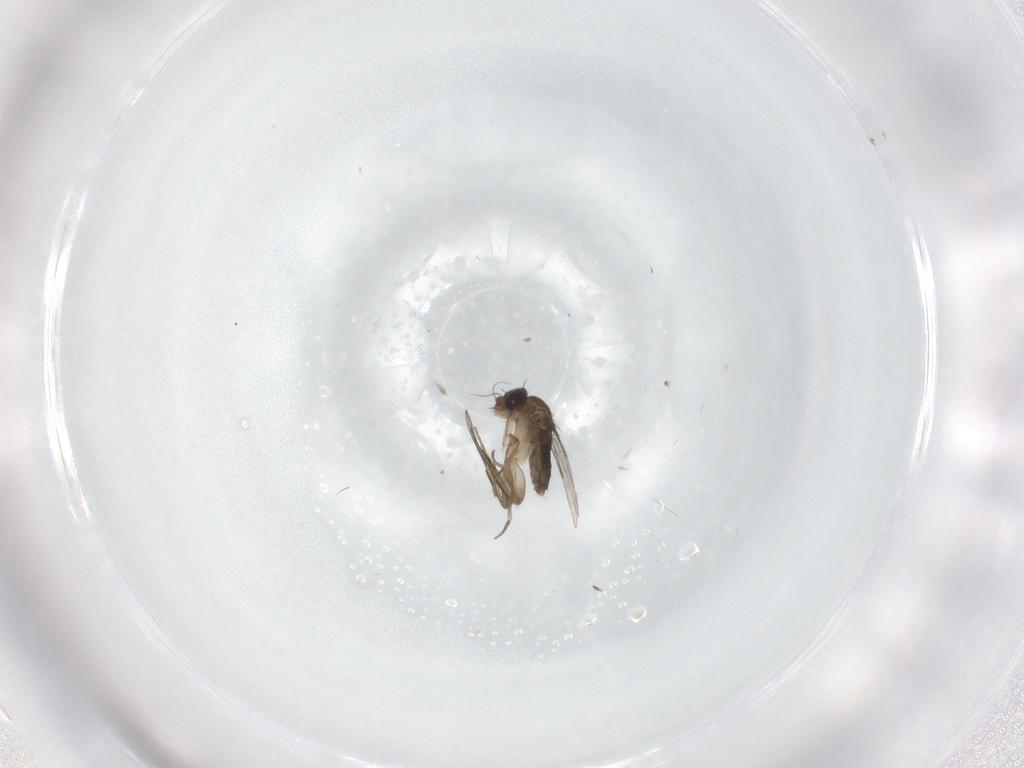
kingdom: Animalia
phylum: Arthropoda
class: Insecta
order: Diptera
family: Phoridae
